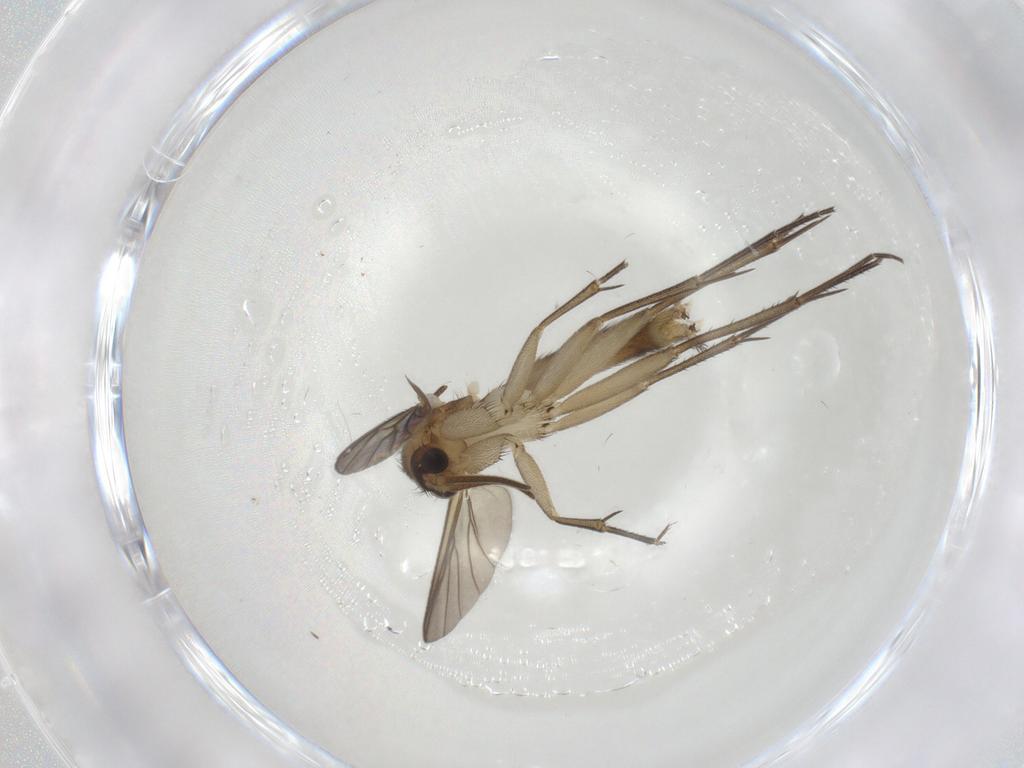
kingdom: Animalia
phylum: Arthropoda
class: Insecta
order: Diptera
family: Mycetophilidae
